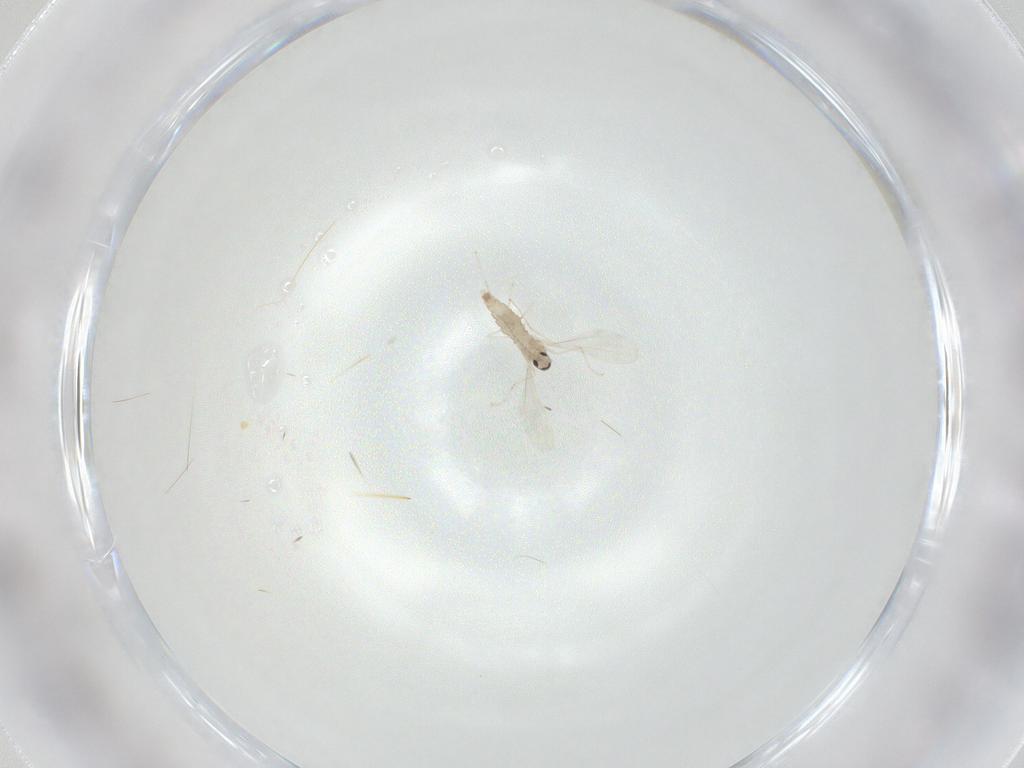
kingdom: Animalia
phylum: Arthropoda
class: Insecta
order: Diptera
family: Cecidomyiidae
